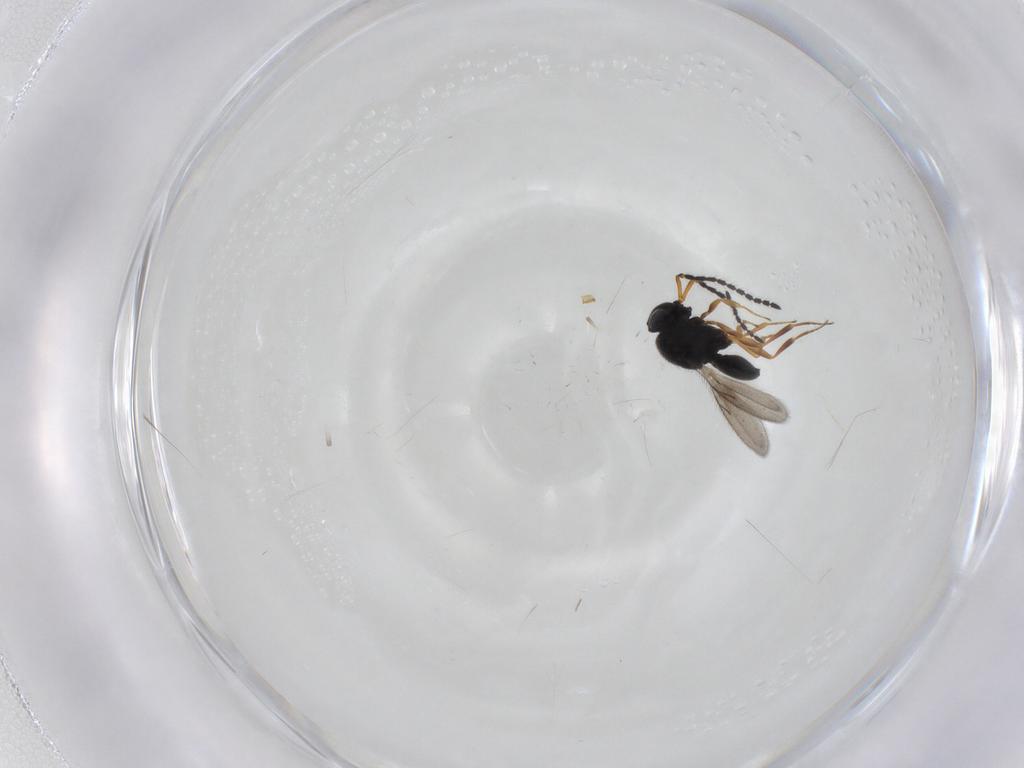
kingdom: Animalia
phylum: Arthropoda
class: Insecta
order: Hymenoptera
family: Scelionidae
